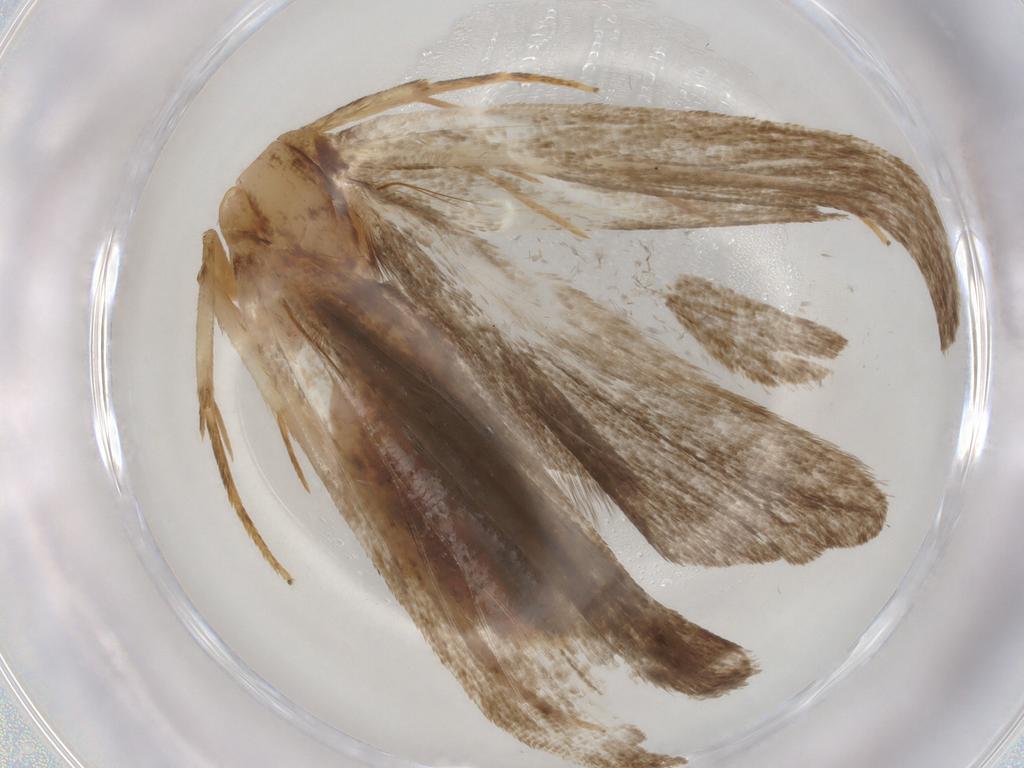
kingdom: Animalia
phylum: Arthropoda
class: Insecta
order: Lepidoptera
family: Autostichidae
